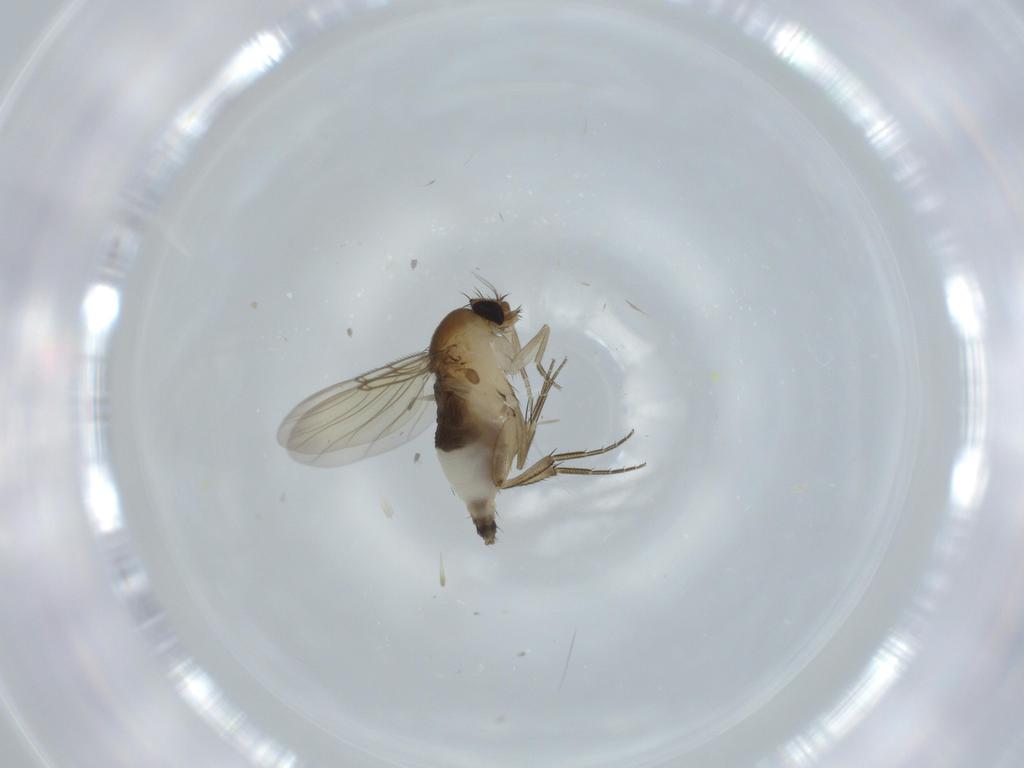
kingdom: Animalia
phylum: Arthropoda
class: Insecta
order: Diptera
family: Phoridae
